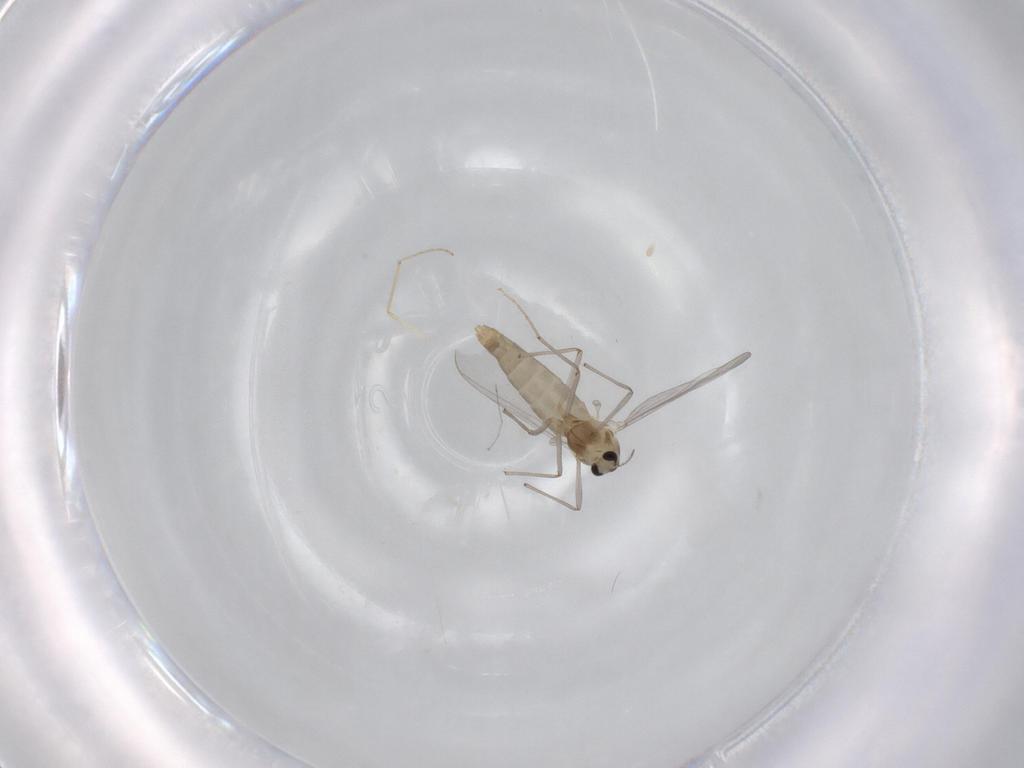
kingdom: Animalia
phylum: Arthropoda
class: Insecta
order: Diptera
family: Chironomidae
